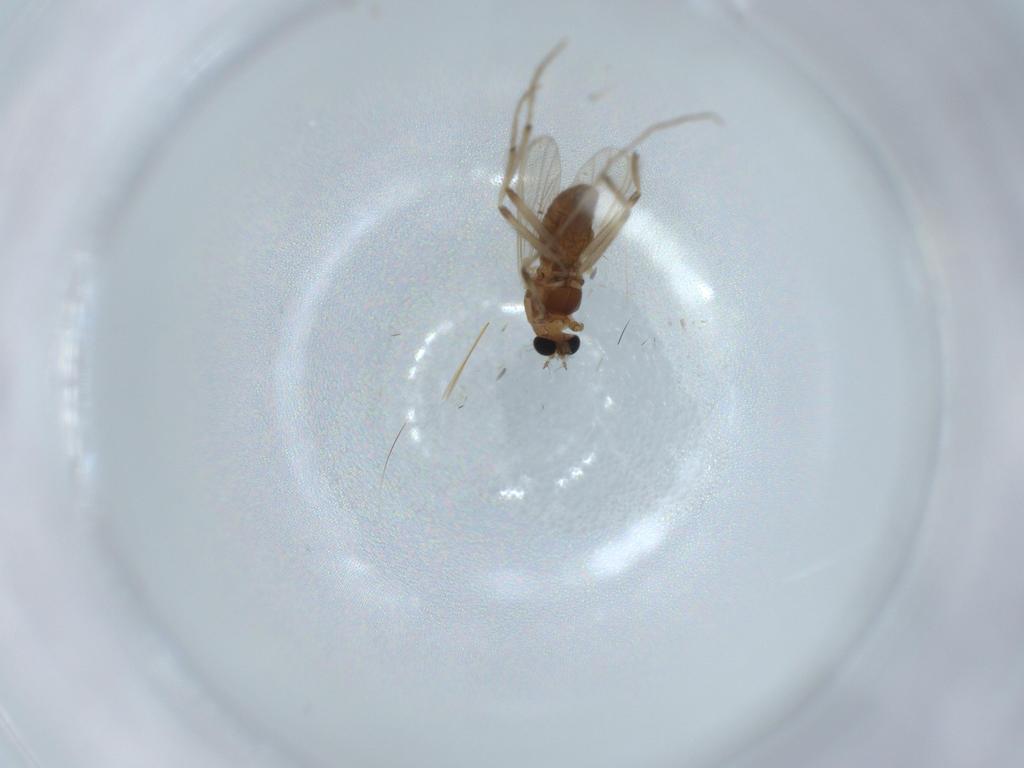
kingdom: Animalia
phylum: Arthropoda
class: Insecta
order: Diptera
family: Chironomidae
